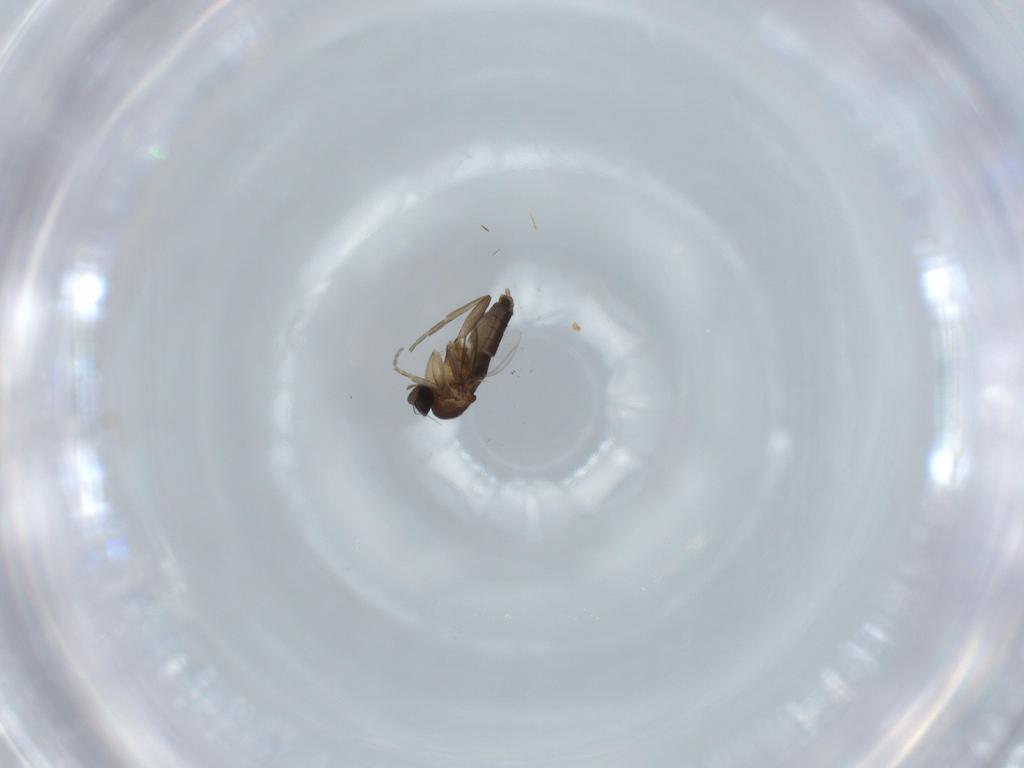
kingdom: Animalia
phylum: Arthropoda
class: Insecta
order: Diptera
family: Phoridae
